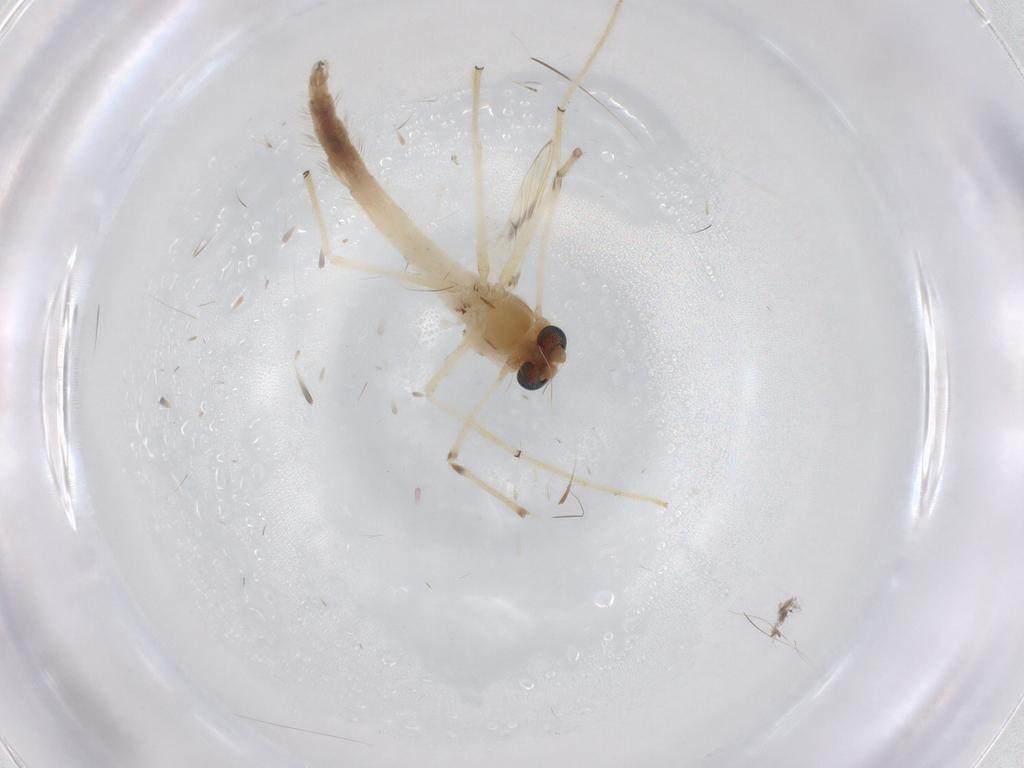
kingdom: Animalia
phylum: Arthropoda
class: Insecta
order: Diptera
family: Chironomidae
